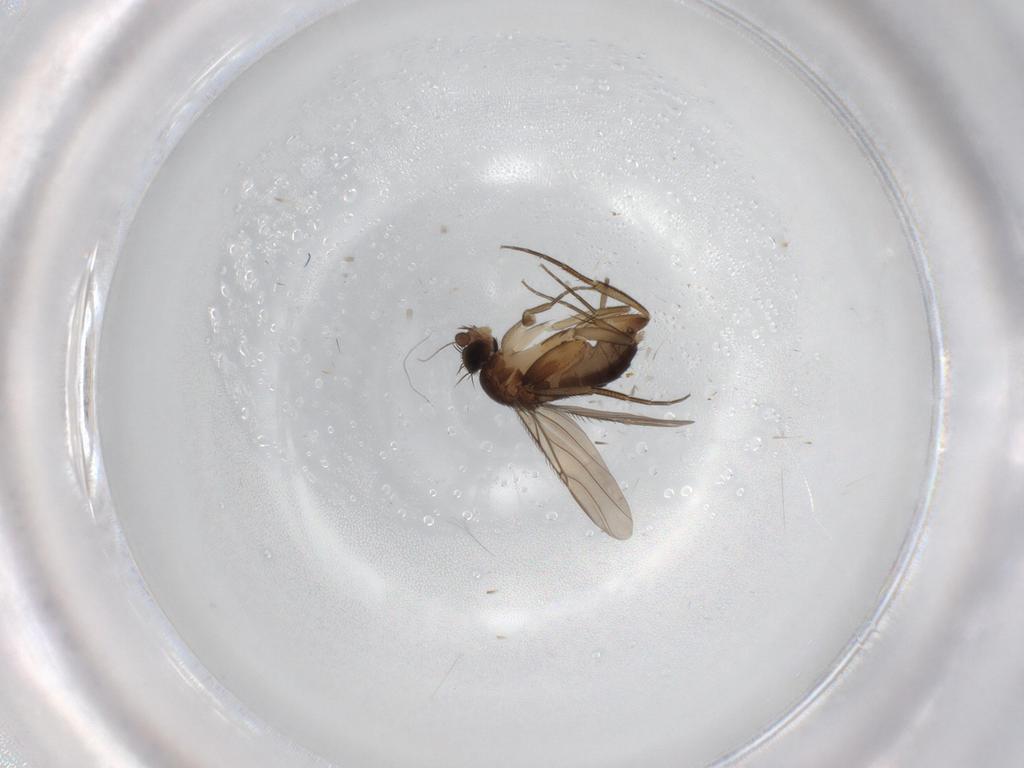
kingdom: Animalia
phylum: Arthropoda
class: Insecta
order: Diptera
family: Phoridae
